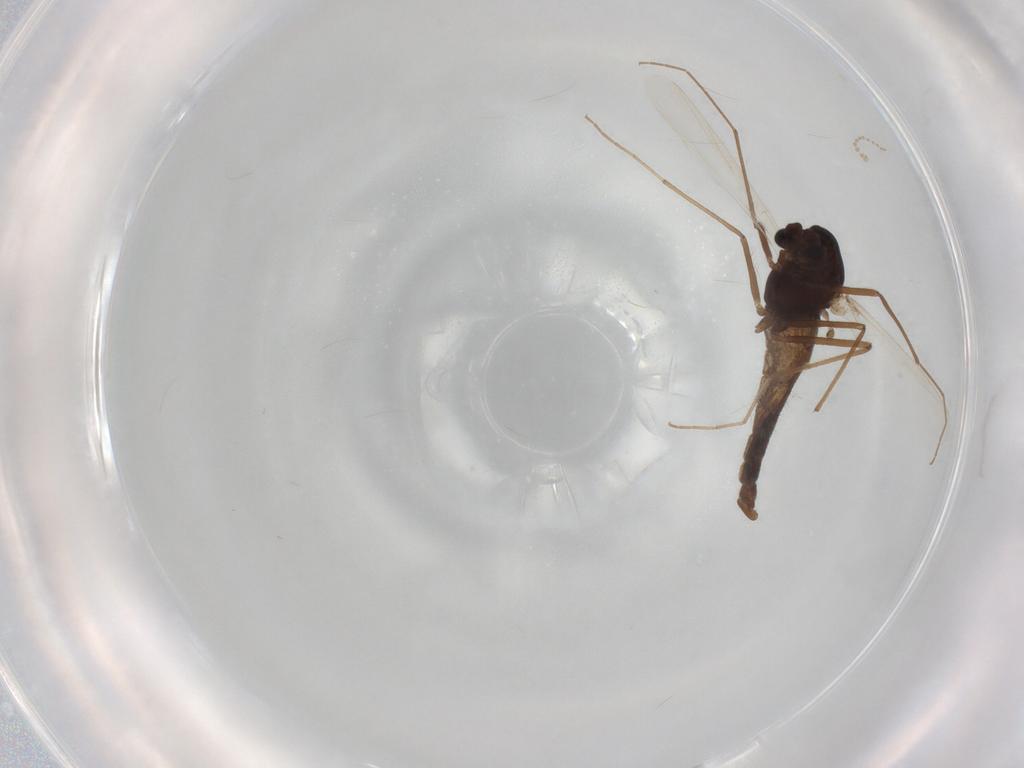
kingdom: Animalia
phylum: Arthropoda
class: Insecta
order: Diptera
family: Chironomidae
